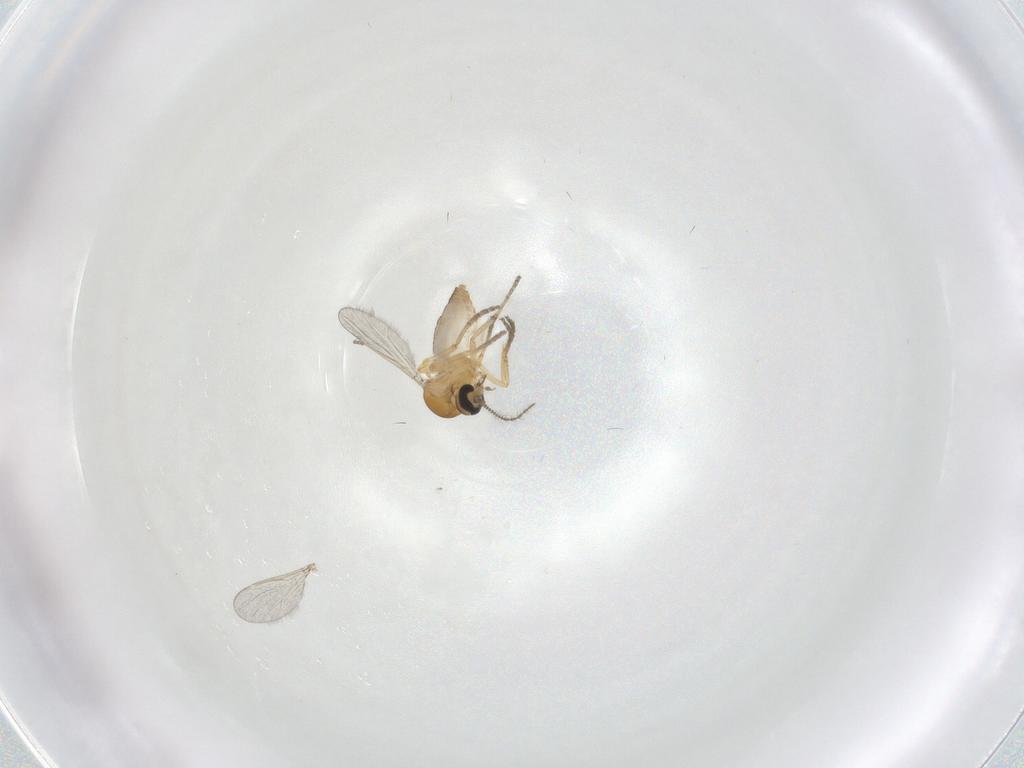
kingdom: Animalia
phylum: Arthropoda
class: Insecta
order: Diptera
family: Ceratopogonidae
